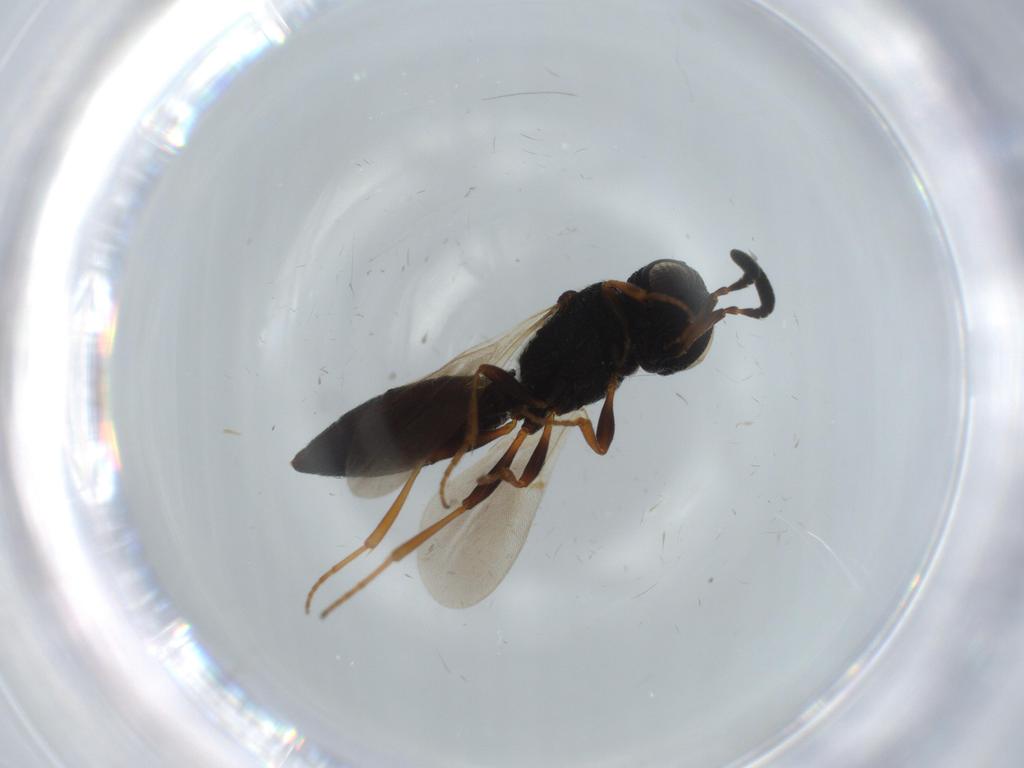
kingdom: Animalia
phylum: Arthropoda
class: Insecta
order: Hymenoptera
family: Scelionidae
